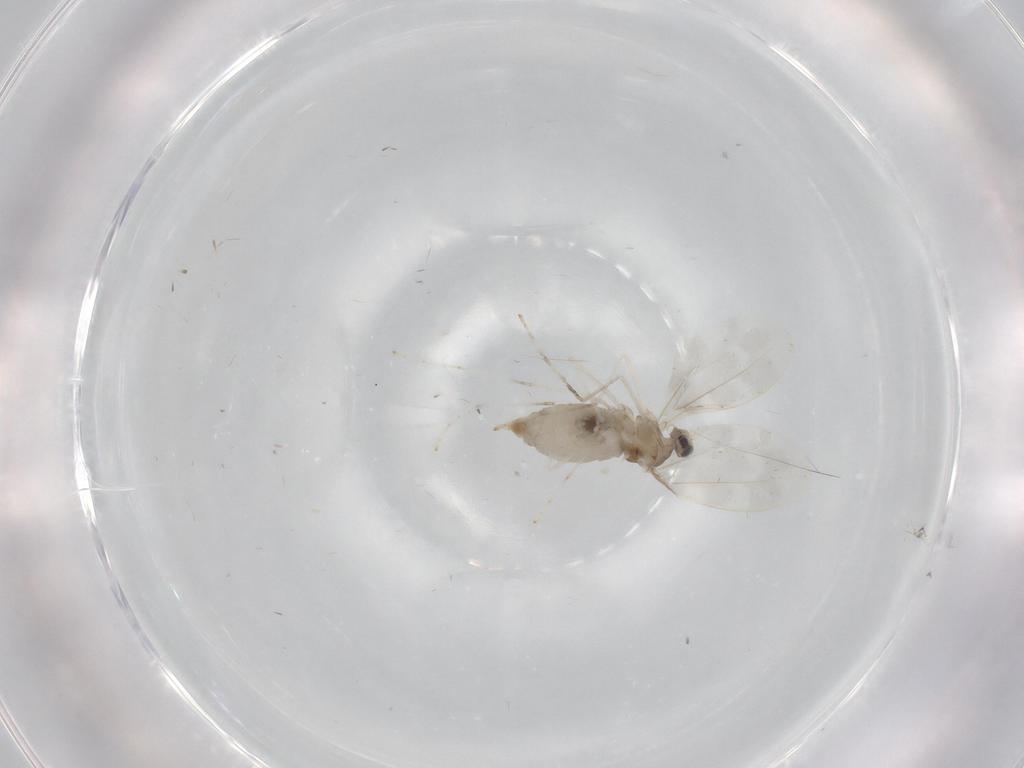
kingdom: Animalia
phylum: Arthropoda
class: Insecta
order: Diptera
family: Cecidomyiidae
